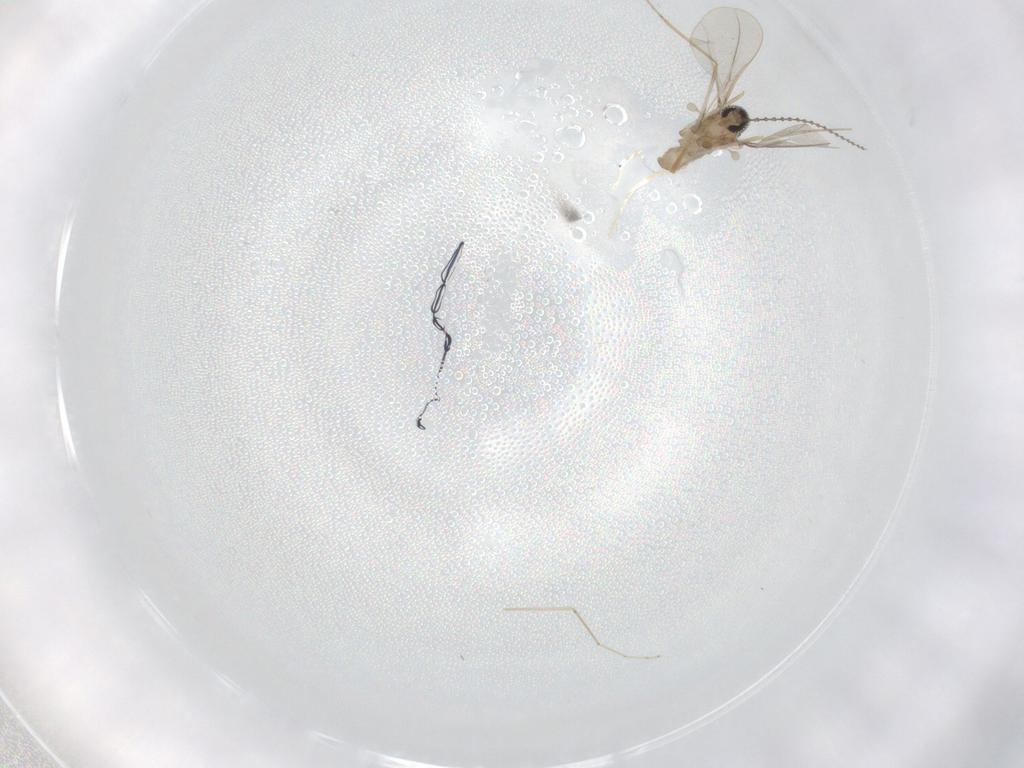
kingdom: Animalia
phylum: Arthropoda
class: Insecta
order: Diptera
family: Cecidomyiidae
